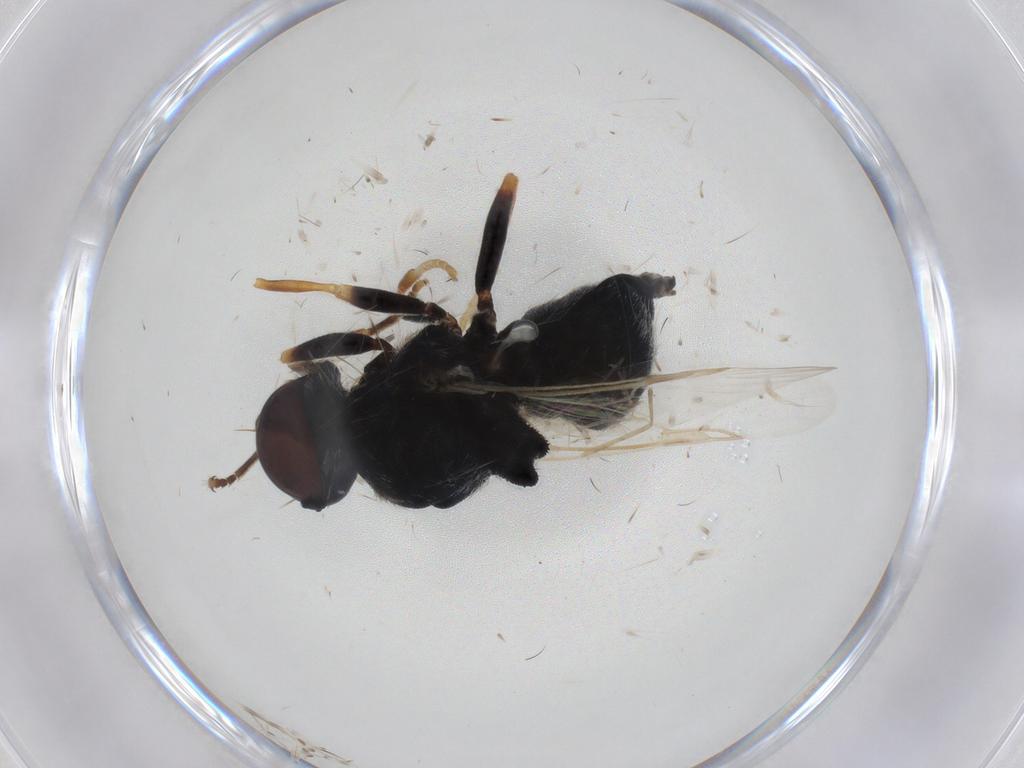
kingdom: Animalia
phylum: Arthropoda
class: Insecta
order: Diptera
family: Stratiomyidae
